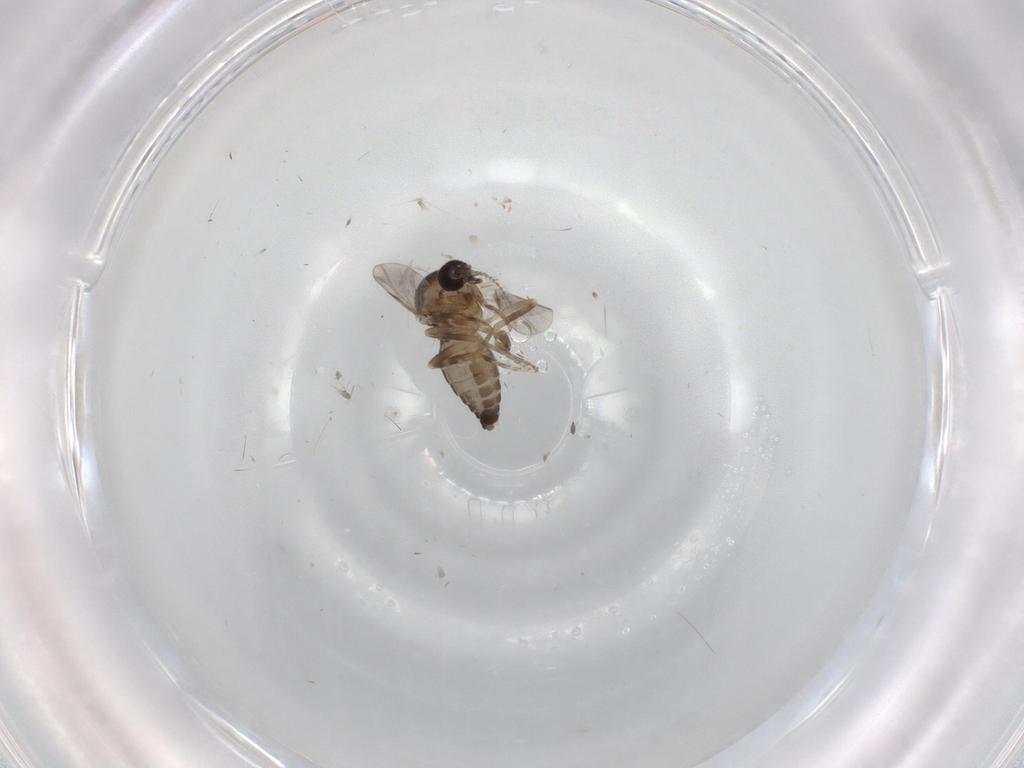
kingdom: Animalia
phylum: Arthropoda
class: Insecta
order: Diptera
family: Ceratopogonidae
